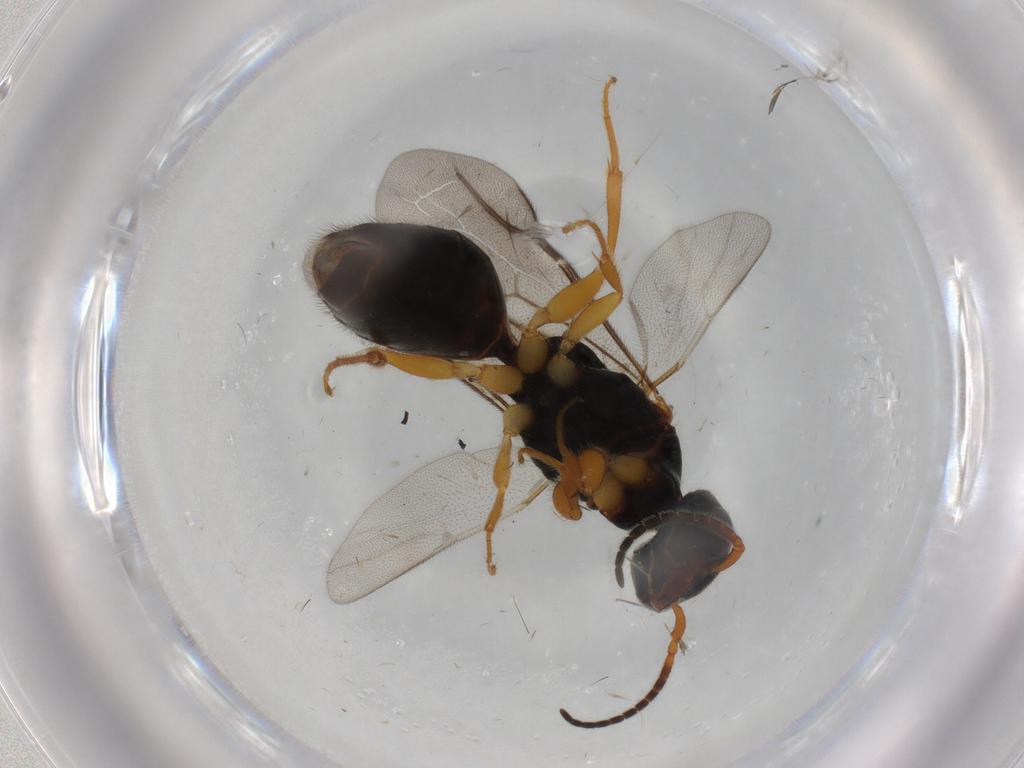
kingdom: Animalia
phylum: Arthropoda
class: Insecta
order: Hymenoptera
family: Bethylidae
